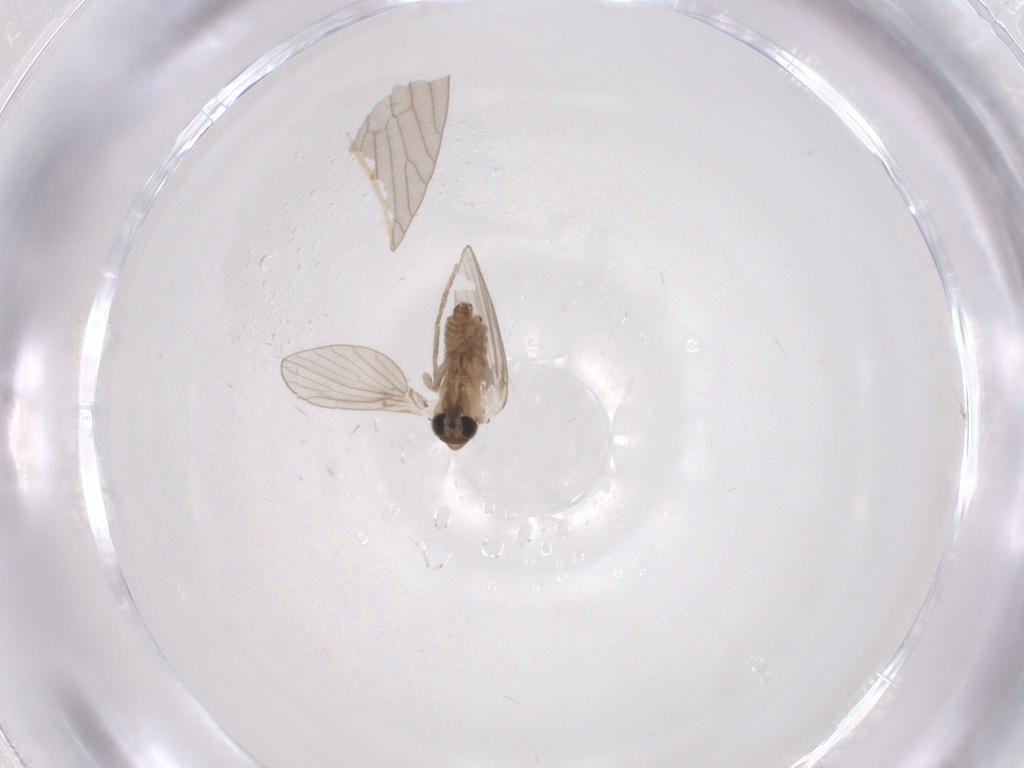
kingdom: Animalia
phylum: Arthropoda
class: Insecta
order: Diptera
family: Chironomidae
